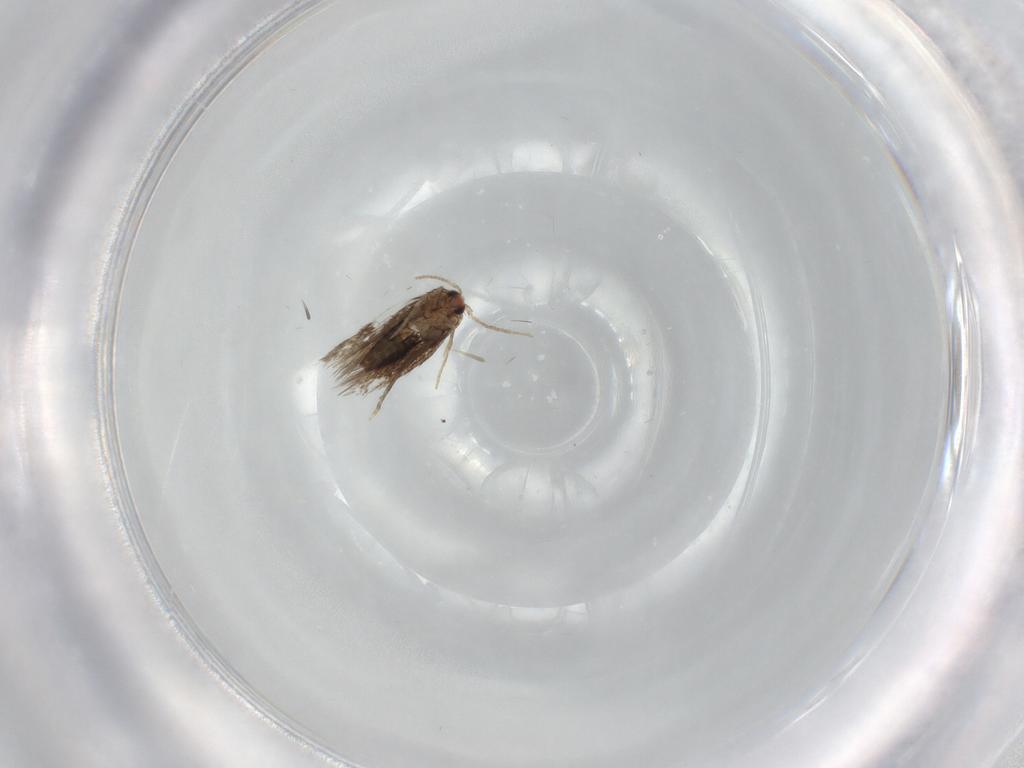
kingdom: Animalia
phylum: Arthropoda
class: Insecta
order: Lepidoptera
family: Nepticulidae
